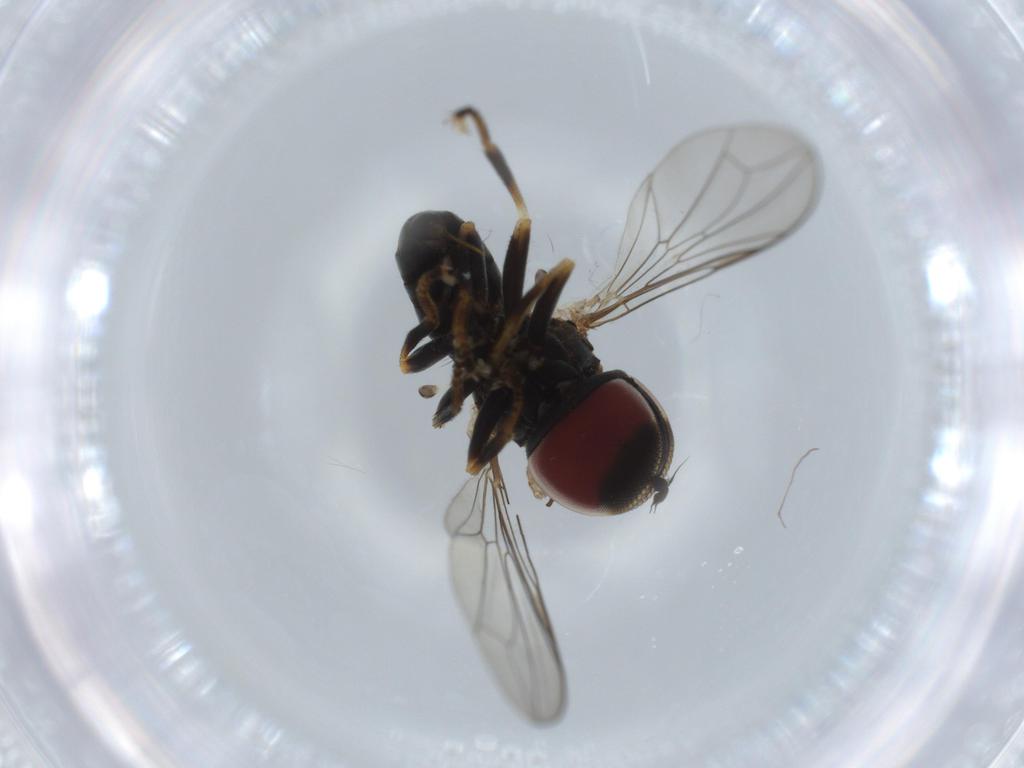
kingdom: Animalia
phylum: Arthropoda
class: Insecta
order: Diptera
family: Pipunculidae
